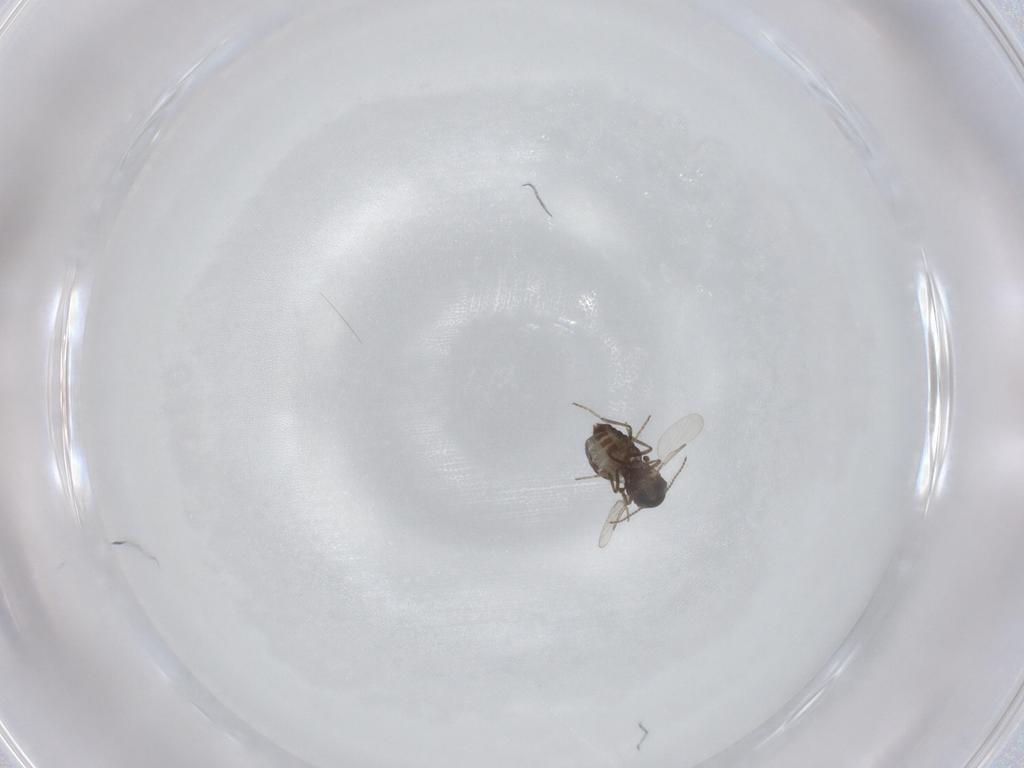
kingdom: Animalia
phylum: Arthropoda
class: Insecta
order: Diptera
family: Ceratopogonidae
